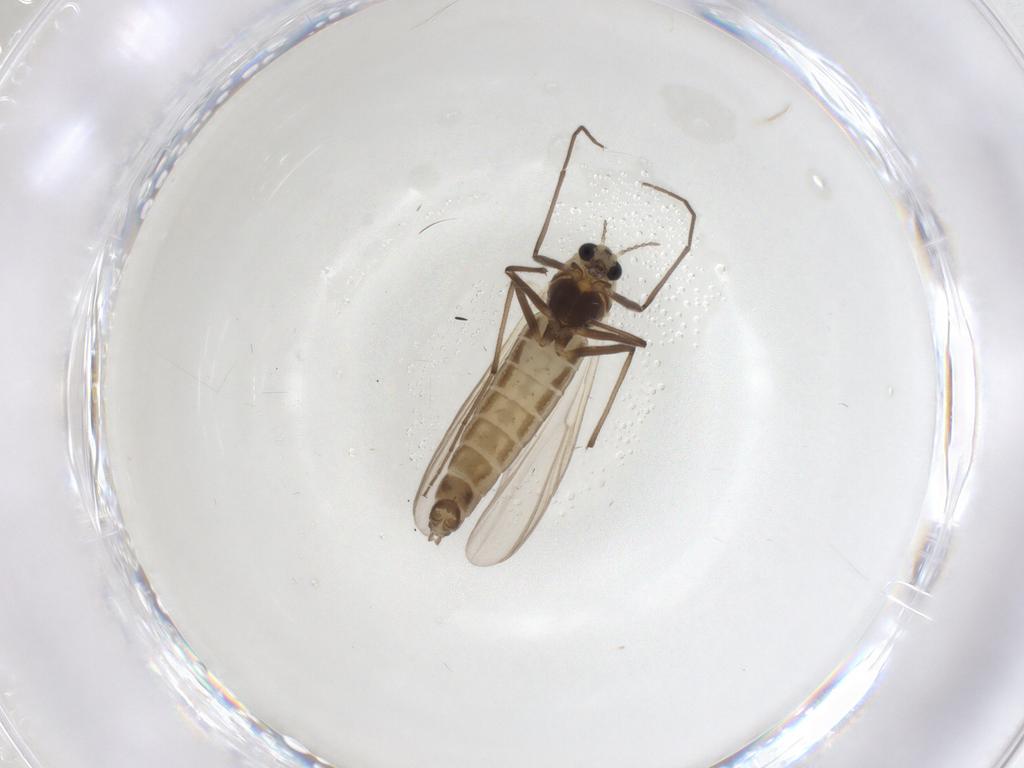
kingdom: Animalia
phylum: Arthropoda
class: Insecta
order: Diptera
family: Chironomidae
